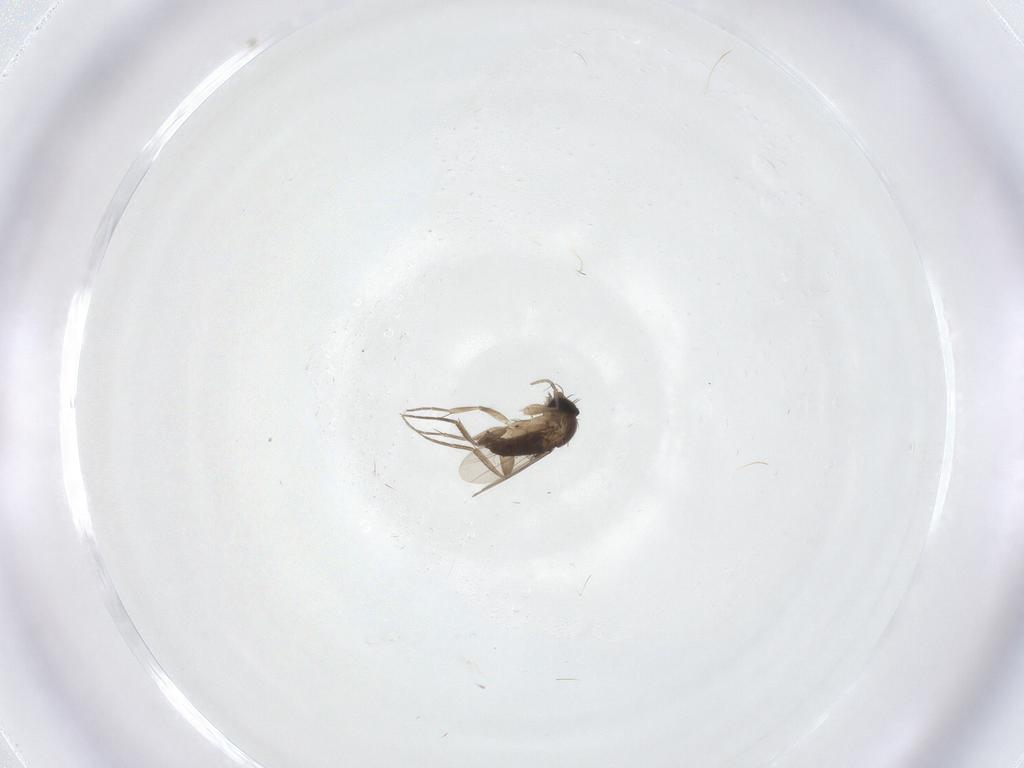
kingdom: Animalia
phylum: Arthropoda
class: Insecta
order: Diptera
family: Phoridae
